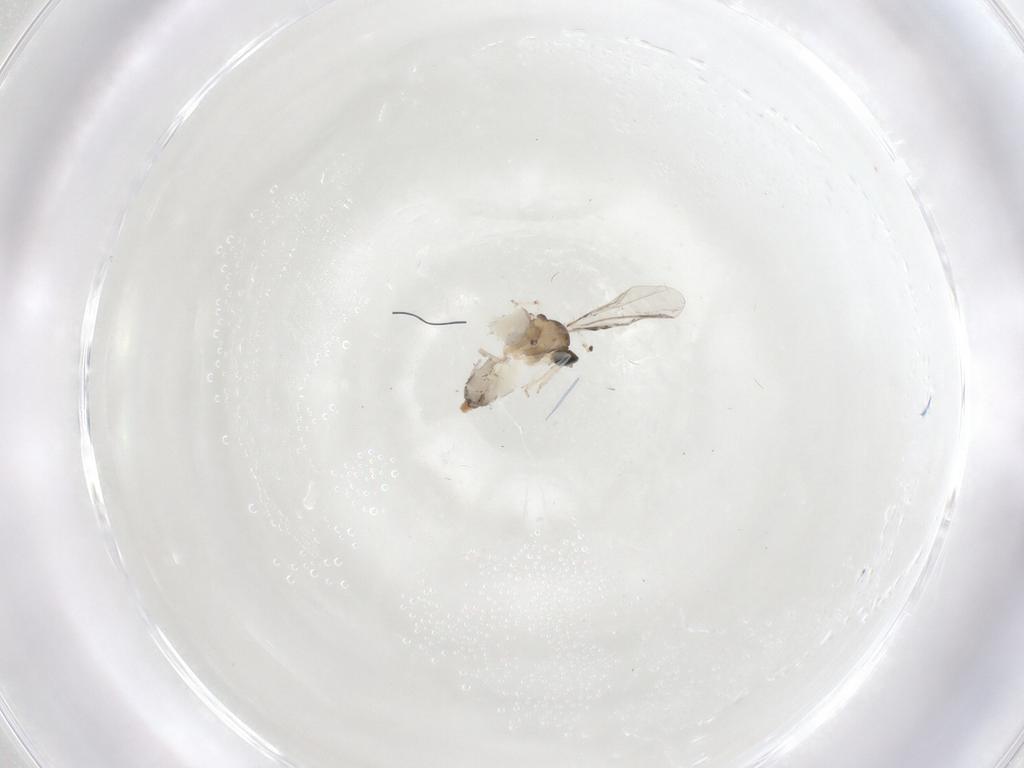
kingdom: Animalia
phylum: Arthropoda
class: Insecta
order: Diptera
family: Cecidomyiidae
